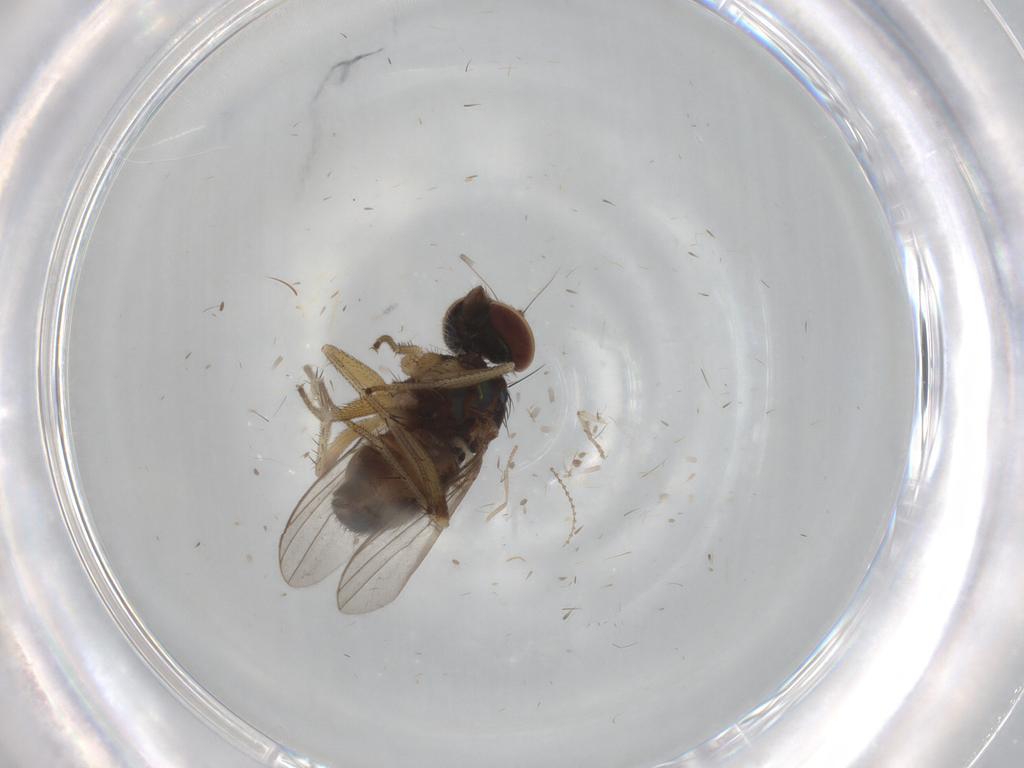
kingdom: Animalia
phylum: Arthropoda
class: Insecta
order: Diptera
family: Dolichopodidae
